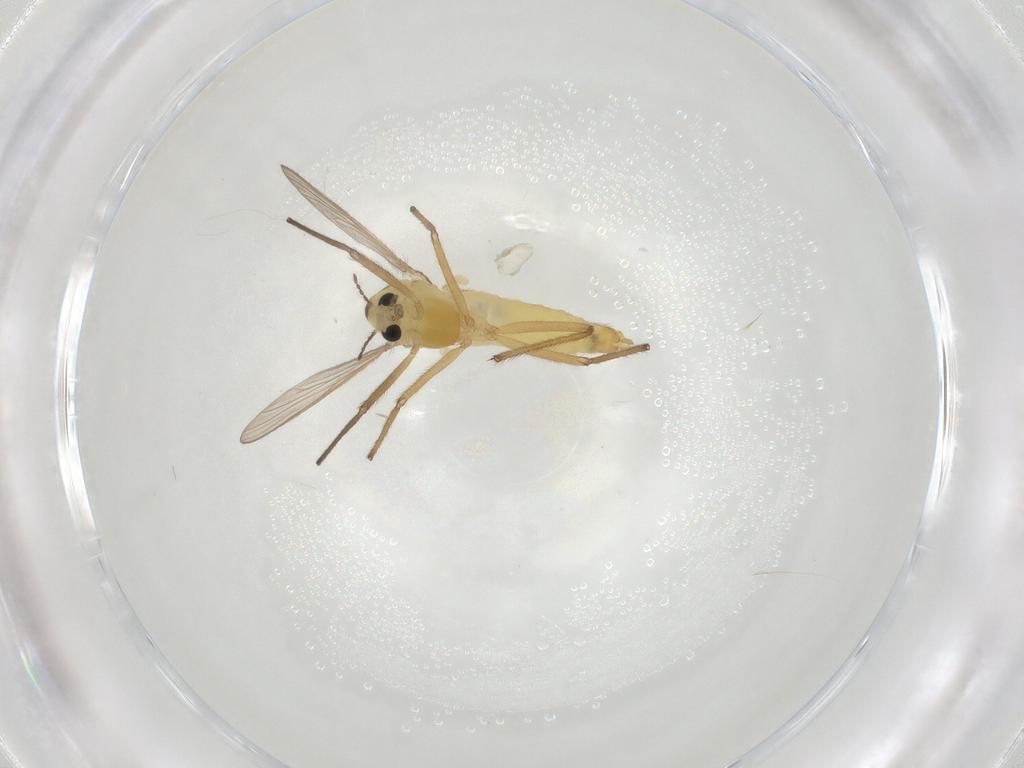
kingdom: Animalia
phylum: Arthropoda
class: Insecta
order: Diptera
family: Chironomidae
